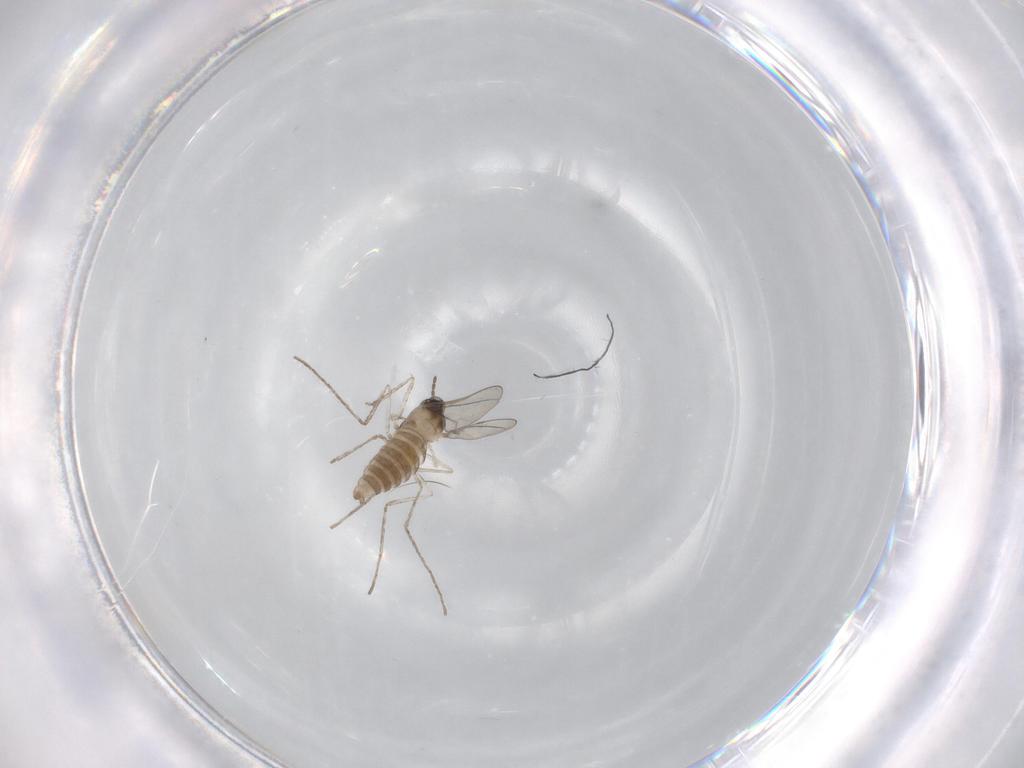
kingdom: Animalia
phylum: Arthropoda
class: Insecta
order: Diptera
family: Cecidomyiidae
